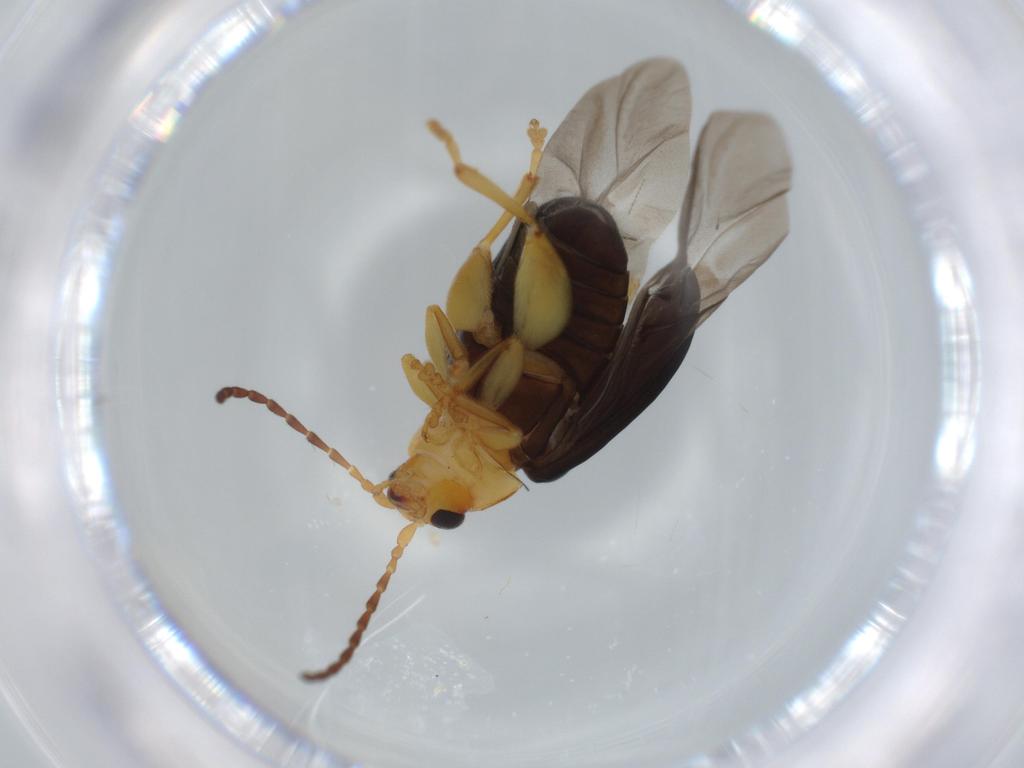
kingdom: Animalia
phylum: Arthropoda
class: Insecta
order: Coleoptera
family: Chrysomelidae
